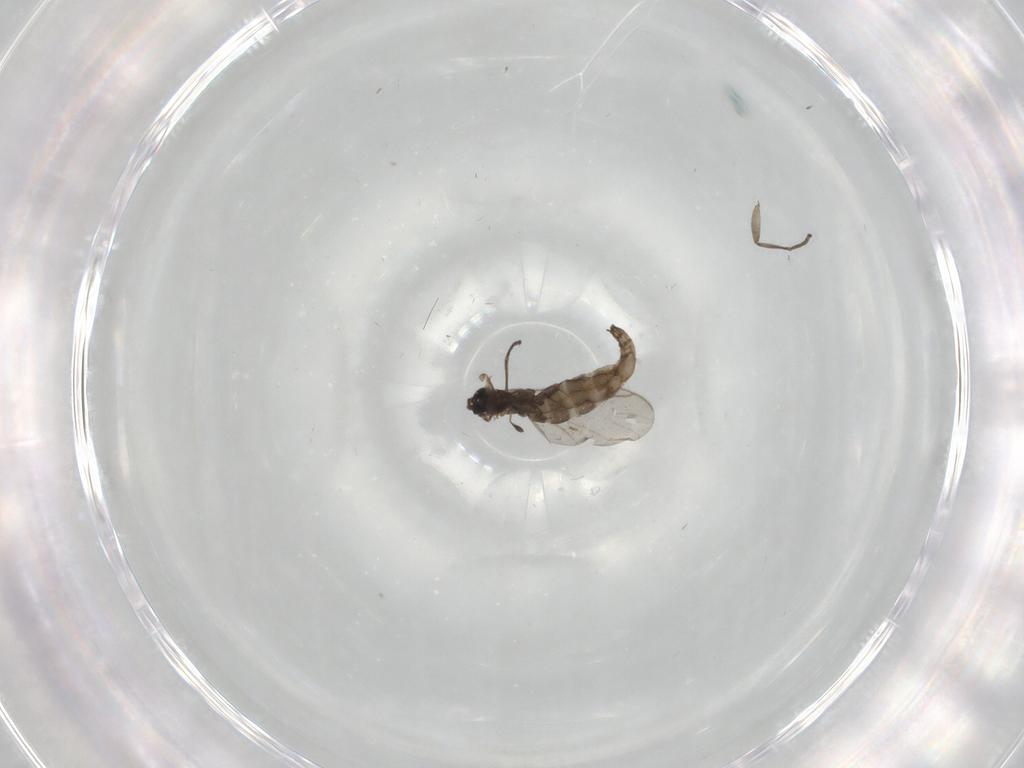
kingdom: Animalia
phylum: Arthropoda
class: Insecta
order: Diptera
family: Cecidomyiidae
